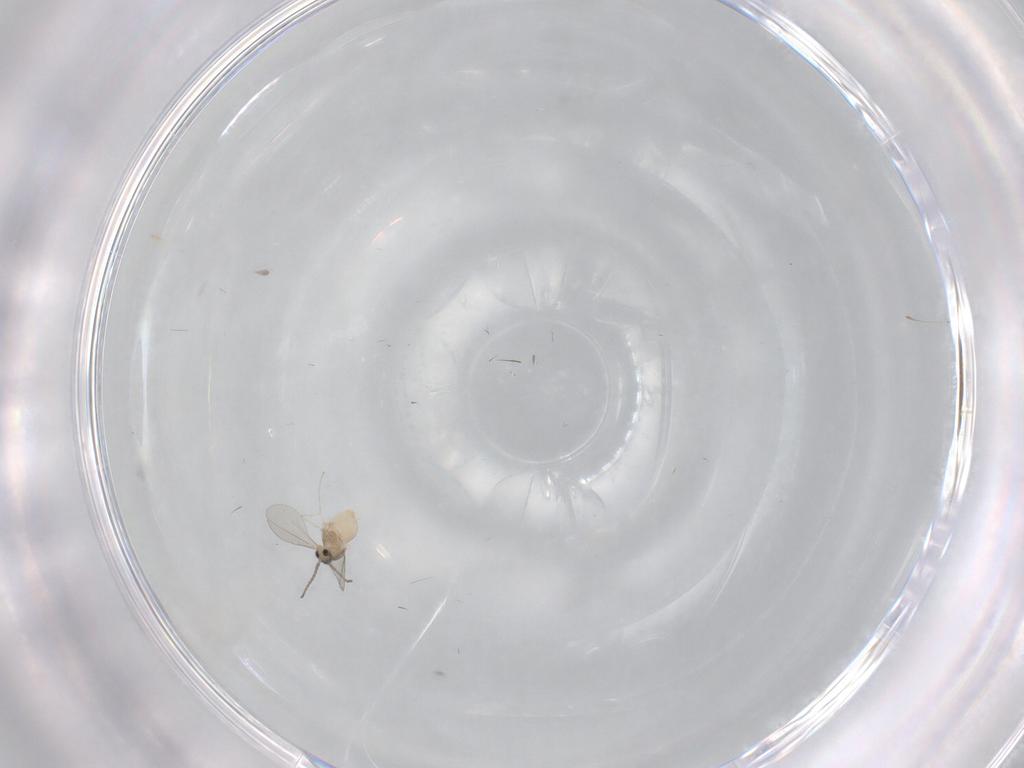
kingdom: Animalia
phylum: Arthropoda
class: Insecta
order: Diptera
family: Cecidomyiidae
